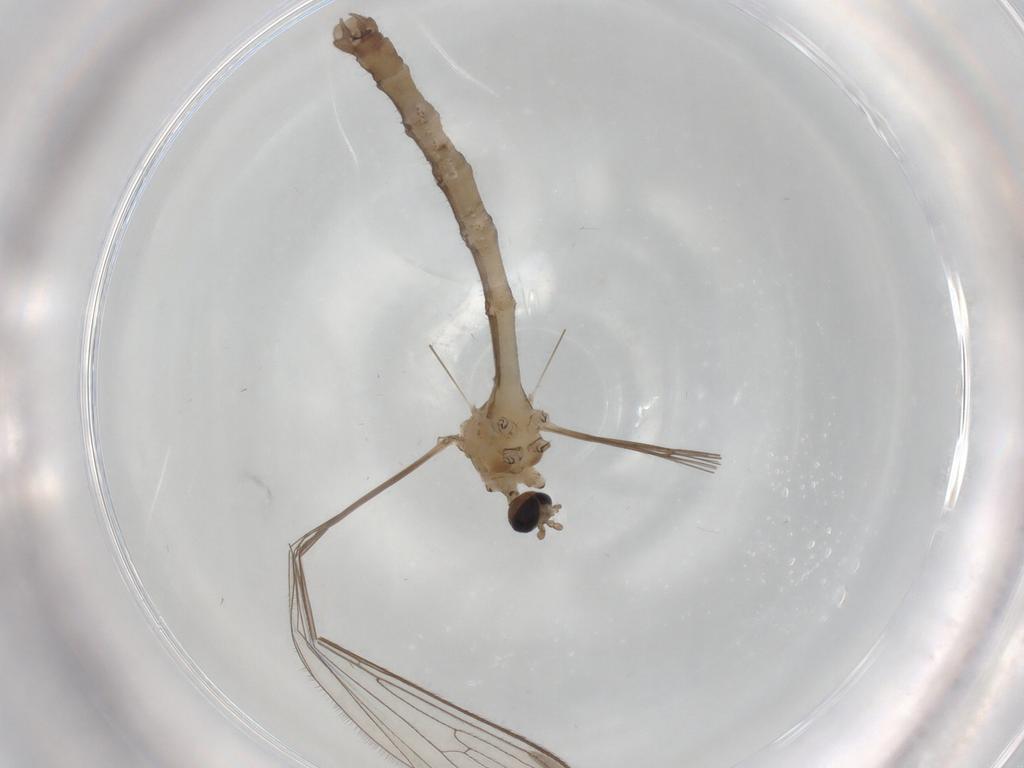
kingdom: Animalia
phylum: Arthropoda
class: Insecta
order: Diptera
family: Limoniidae
